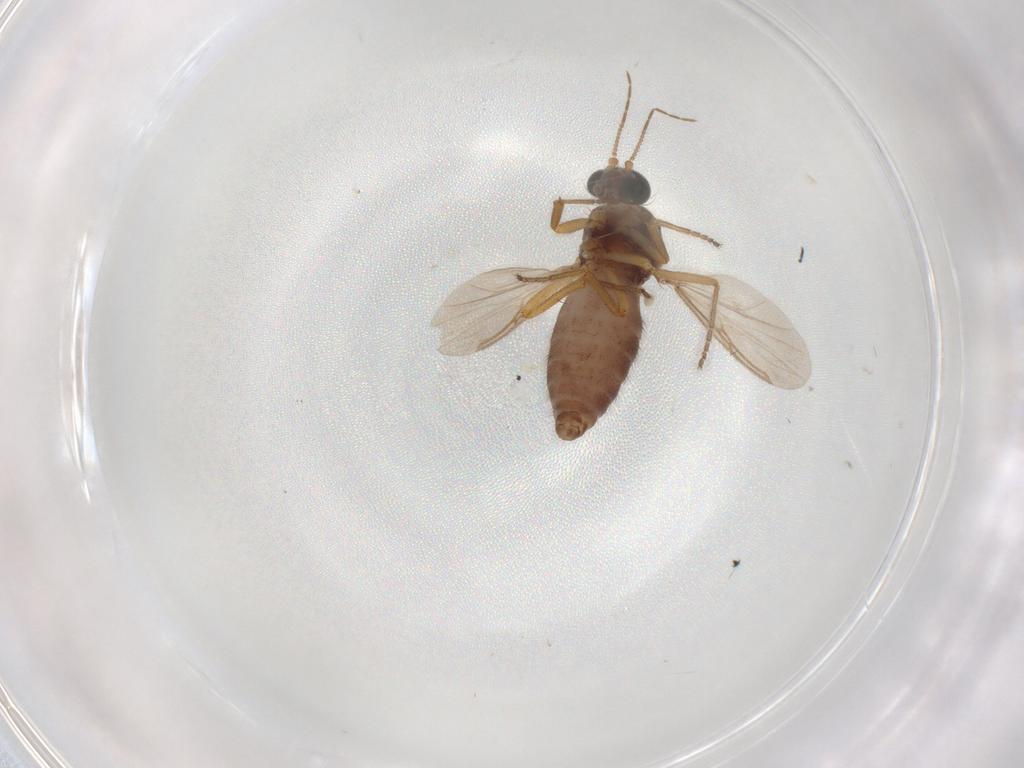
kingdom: Animalia
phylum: Arthropoda
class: Insecta
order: Diptera
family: Ceratopogonidae
